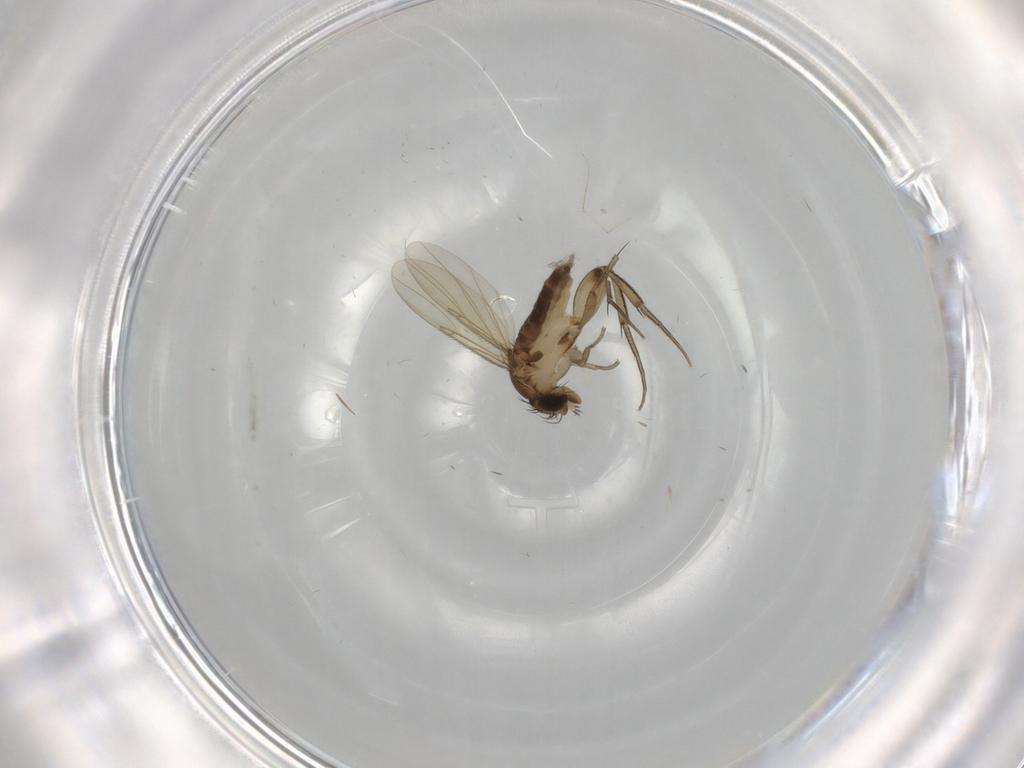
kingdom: Animalia
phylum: Arthropoda
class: Insecta
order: Diptera
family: Phoridae
